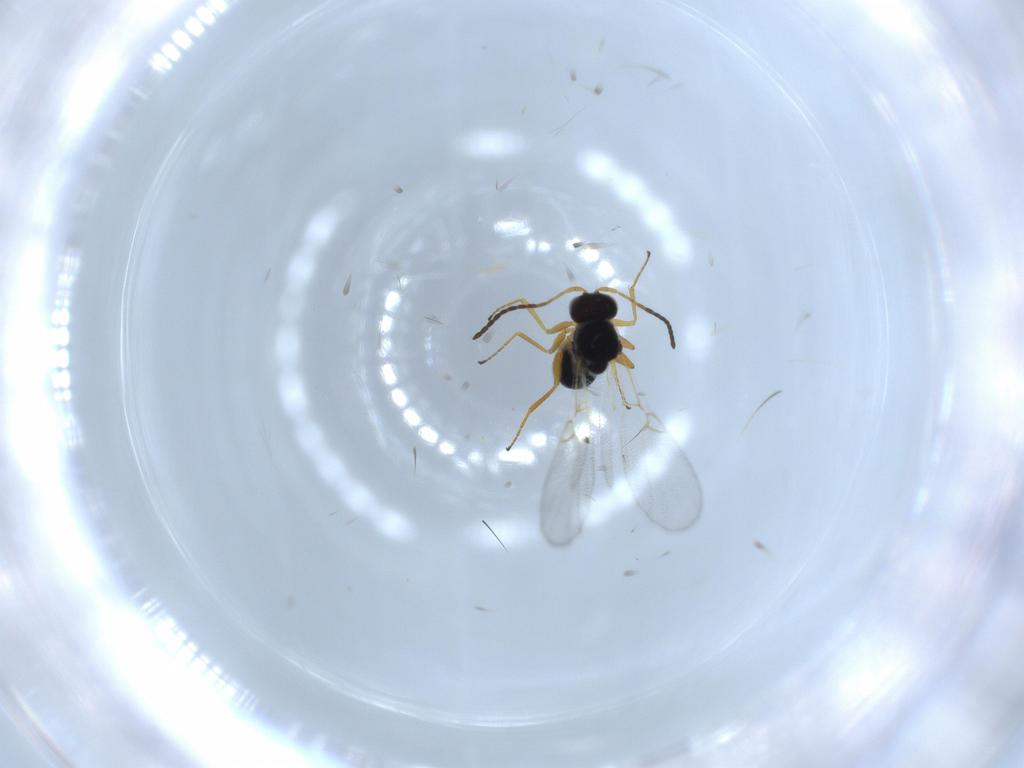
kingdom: Animalia
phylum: Arthropoda
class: Insecta
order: Hymenoptera
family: Figitidae
